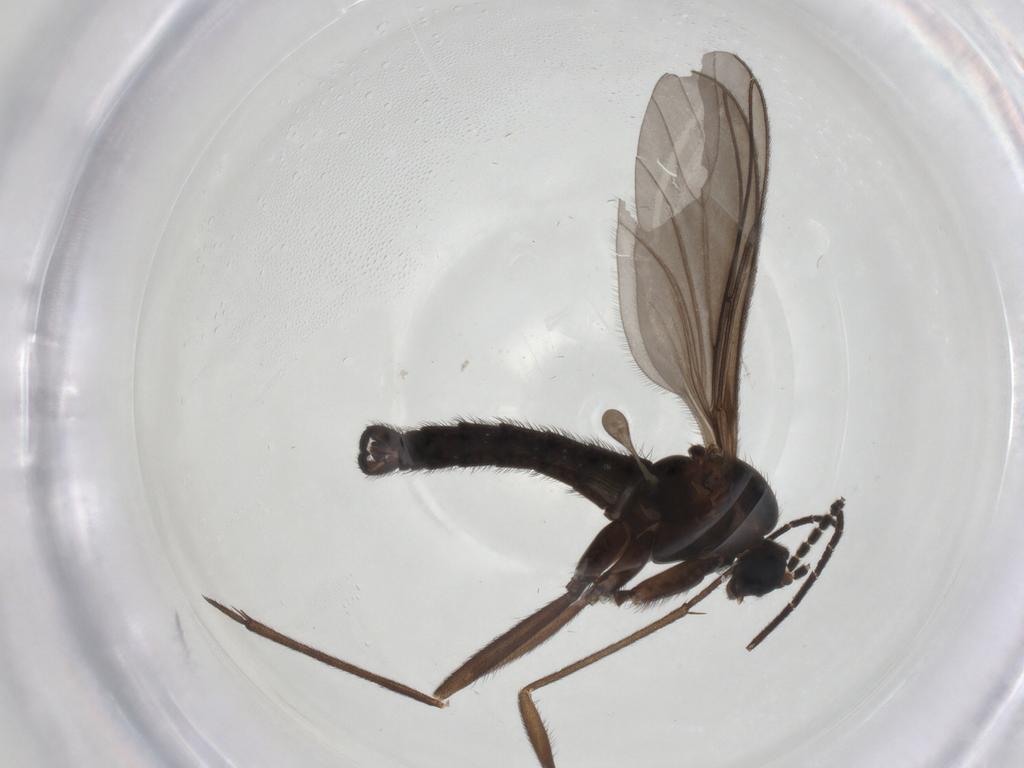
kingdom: Animalia
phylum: Arthropoda
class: Insecta
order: Diptera
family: Sciaridae
